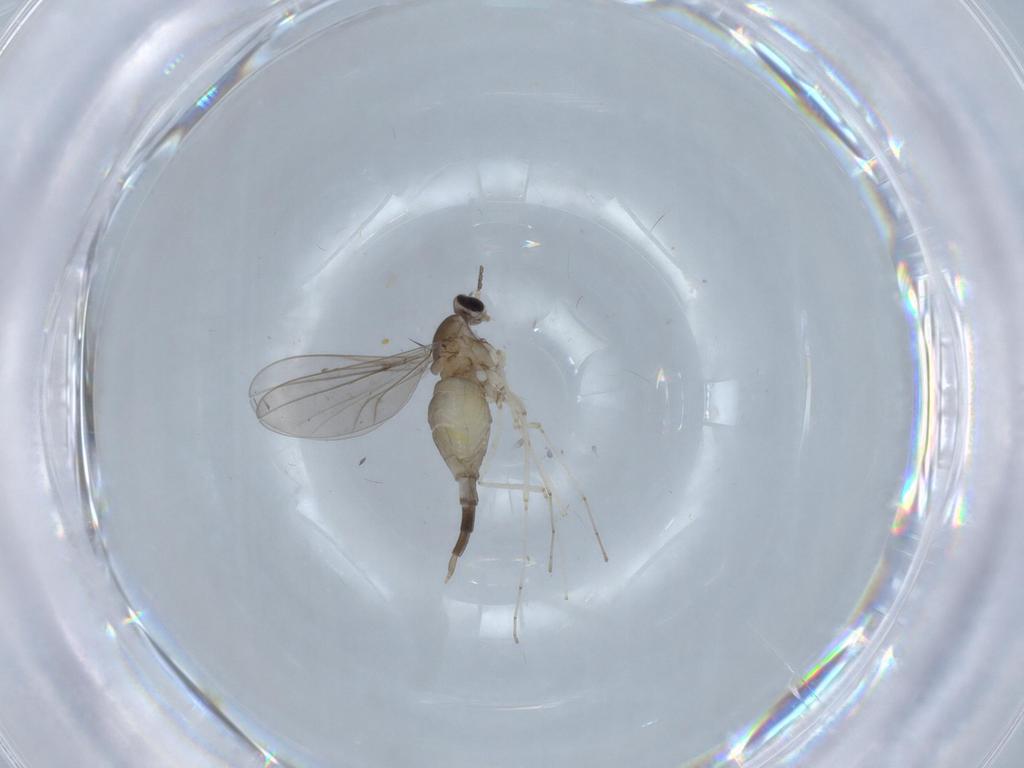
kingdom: Animalia
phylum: Arthropoda
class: Insecta
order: Diptera
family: Cecidomyiidae
